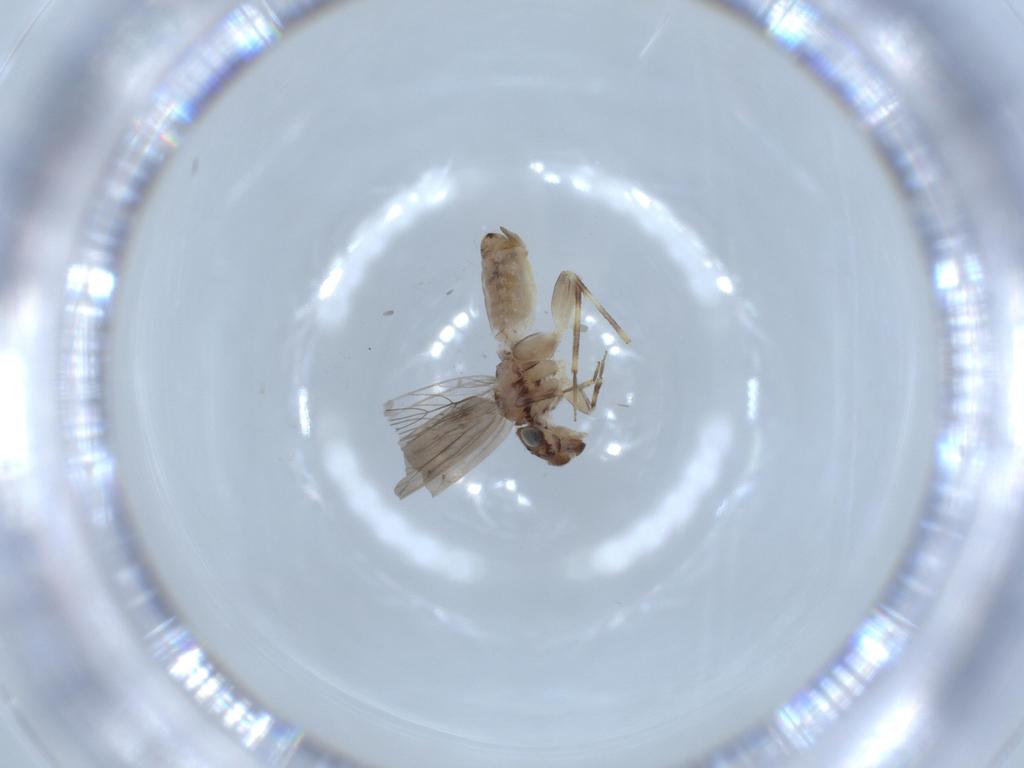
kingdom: Animalia
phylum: Arthropoda
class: Insecta
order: Psocodea
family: Lepidopsocidae
